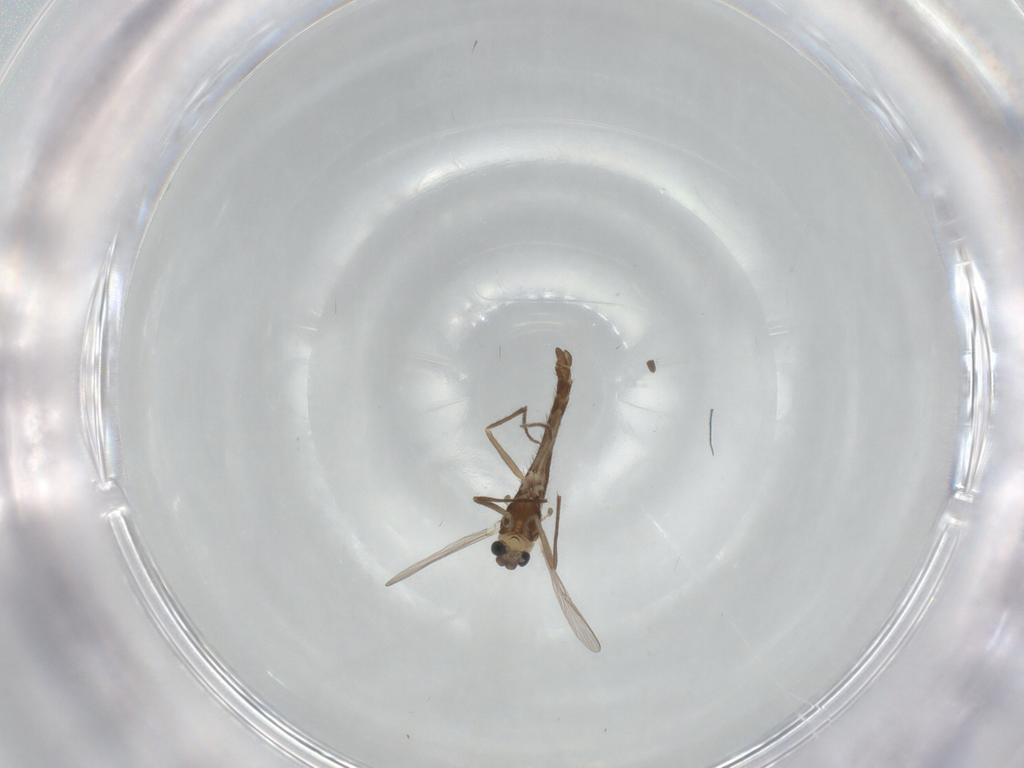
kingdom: Animalia
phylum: Arthropoda
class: Insecta
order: Diptera
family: Chironomidae
